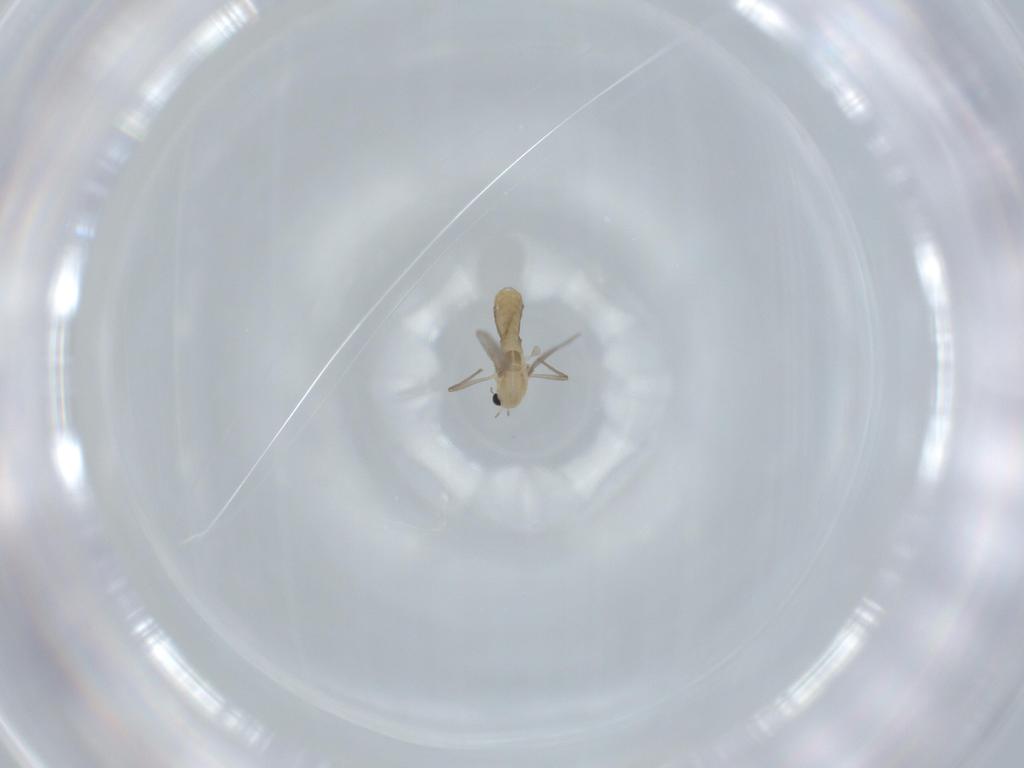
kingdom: Animalia
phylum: Arthropoda
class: Insecta
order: Diptera
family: Chironomidae
